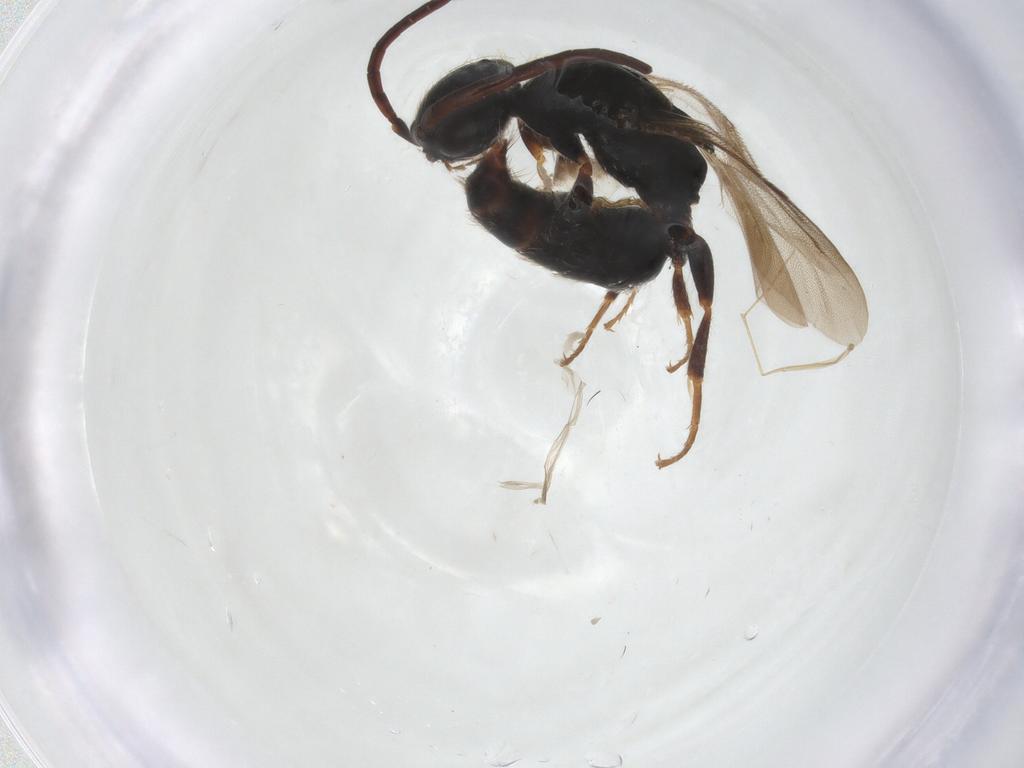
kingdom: Animalia
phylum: Arthropoda
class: Insecta
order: Hymenoptera
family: Bethylidae
